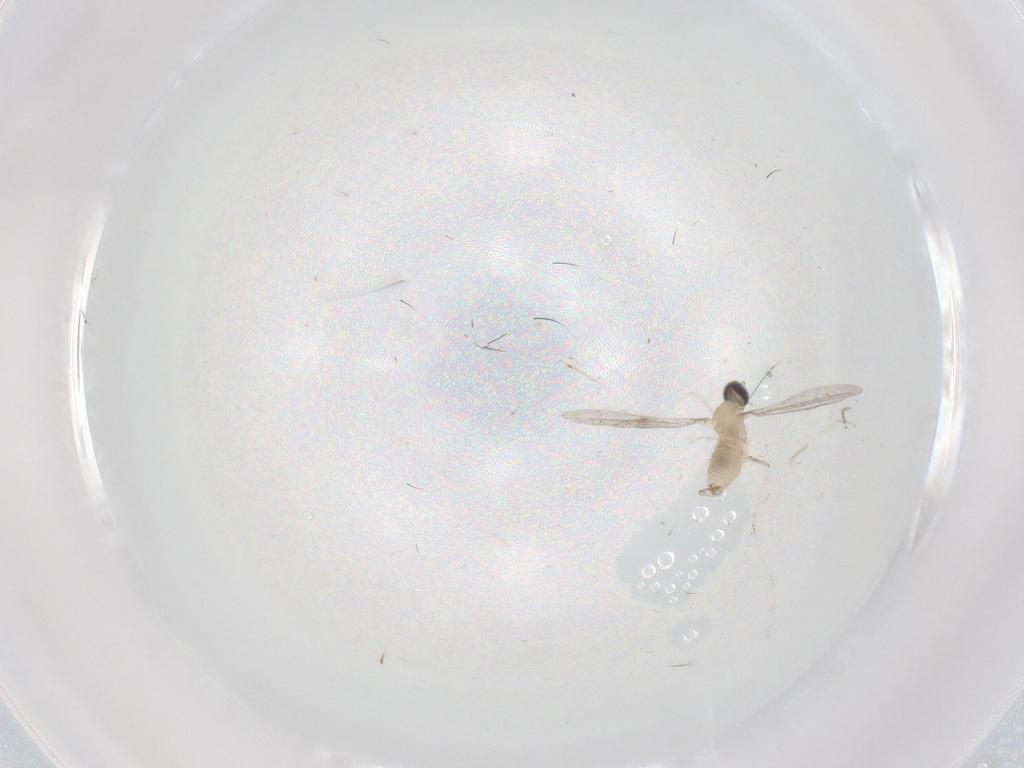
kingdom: Animalia
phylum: Arthropoda
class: Insecta
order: Diptera
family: Cecidomyiidae
